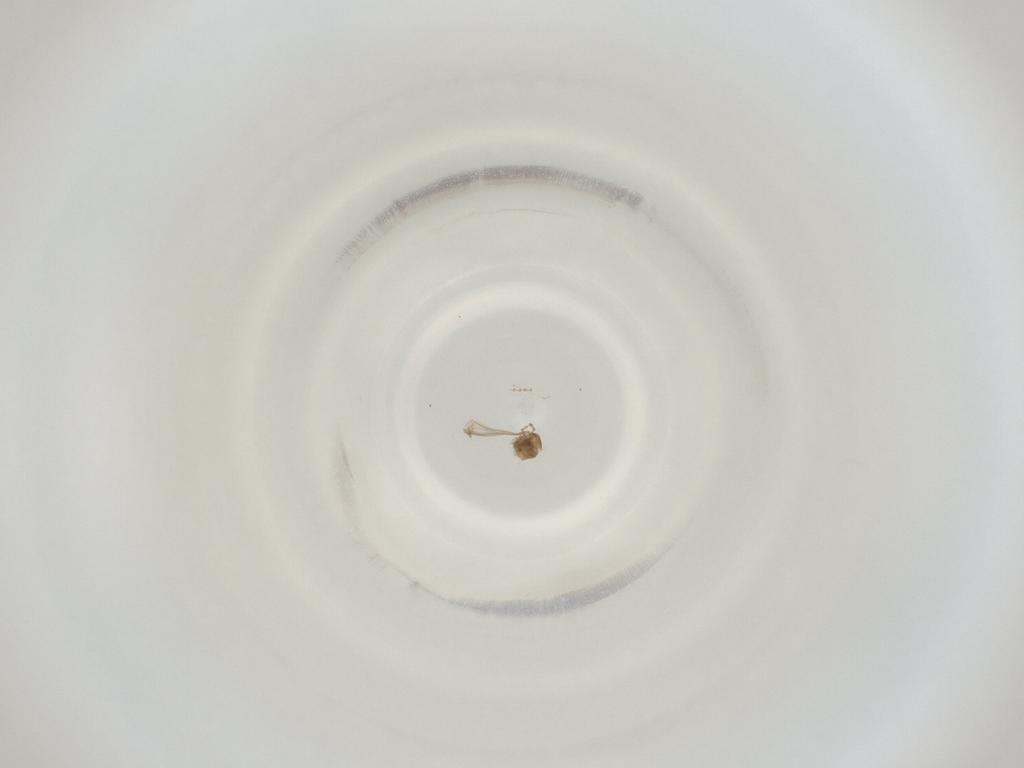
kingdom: Animalia
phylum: Arthropoda
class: Insecta
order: Diptera
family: Cecidomyiidae
